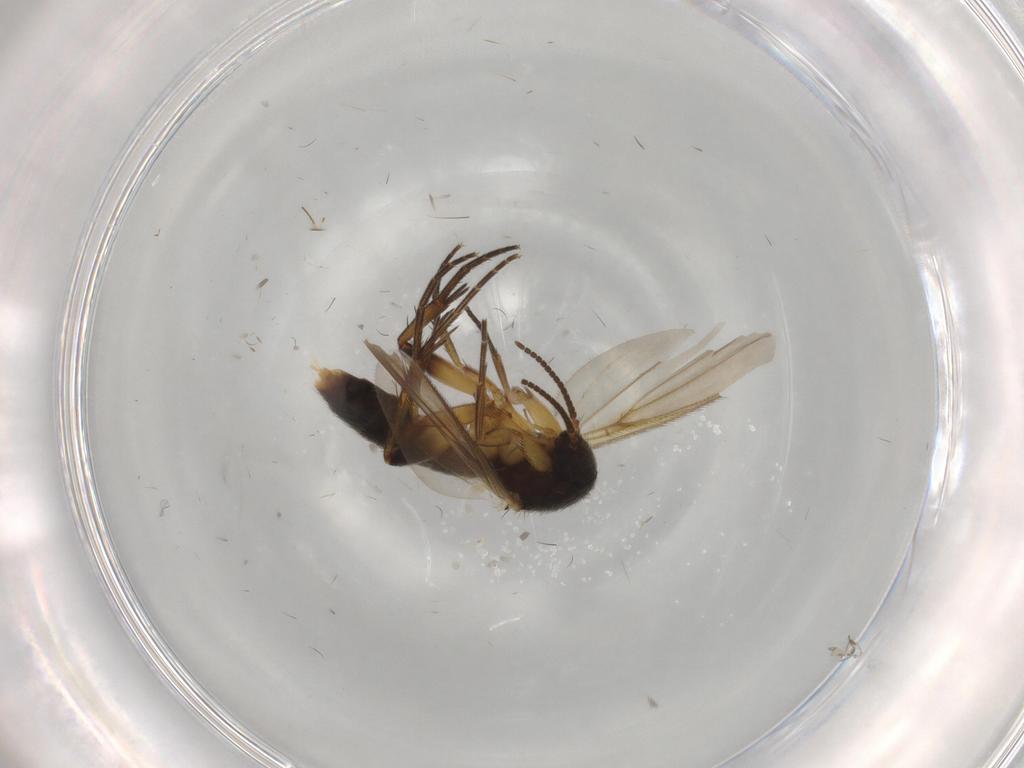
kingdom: Animalia
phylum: Arthropoda
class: Insecta
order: Diptera
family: Mycetophilidae
